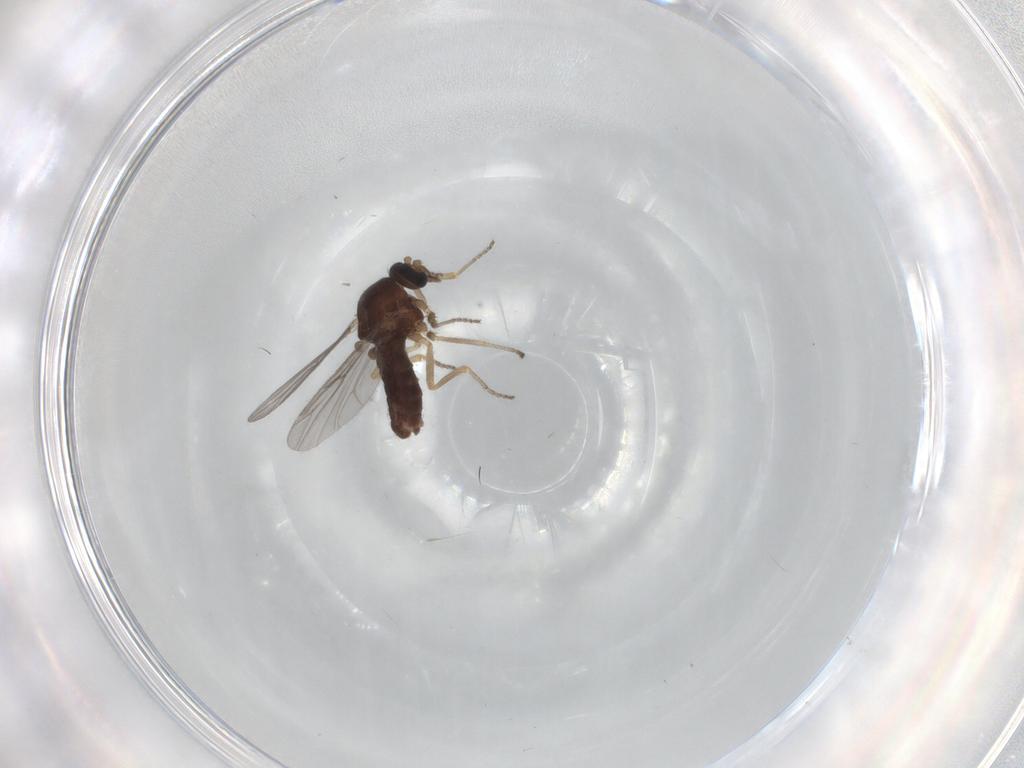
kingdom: Animalia
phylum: Arthropoda
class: Insecta
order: Diptera
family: Ceratopogonidae
